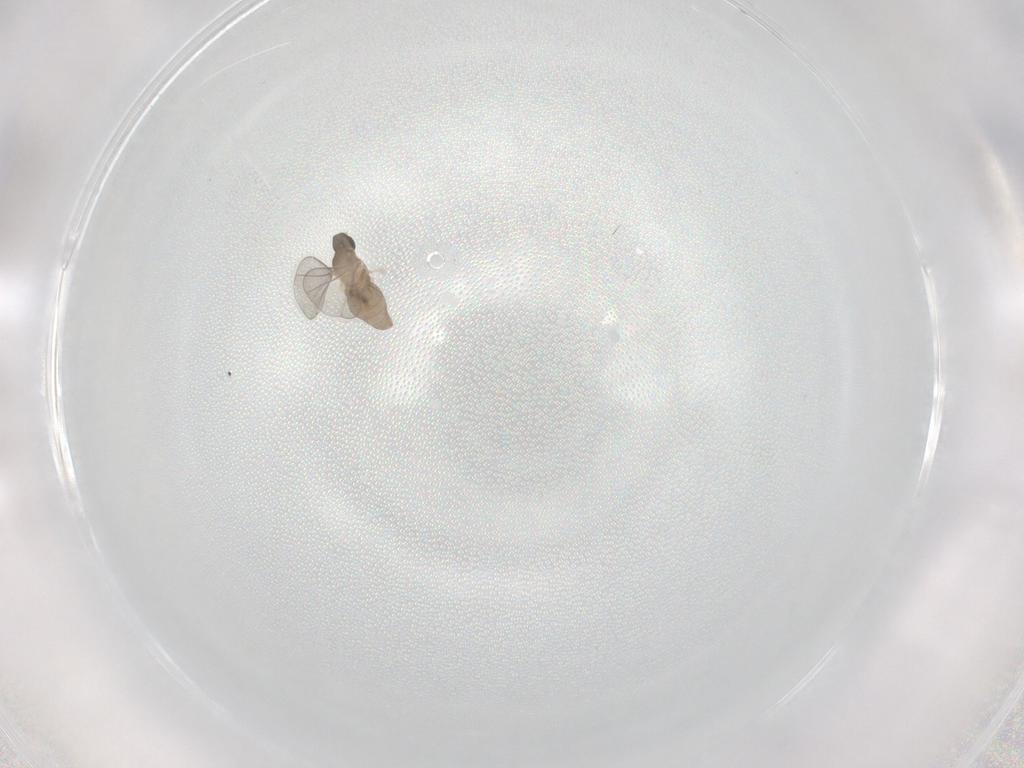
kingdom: Animalia
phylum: Arthropoda
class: Insecta
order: Diptera
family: Cecidomyiidae
